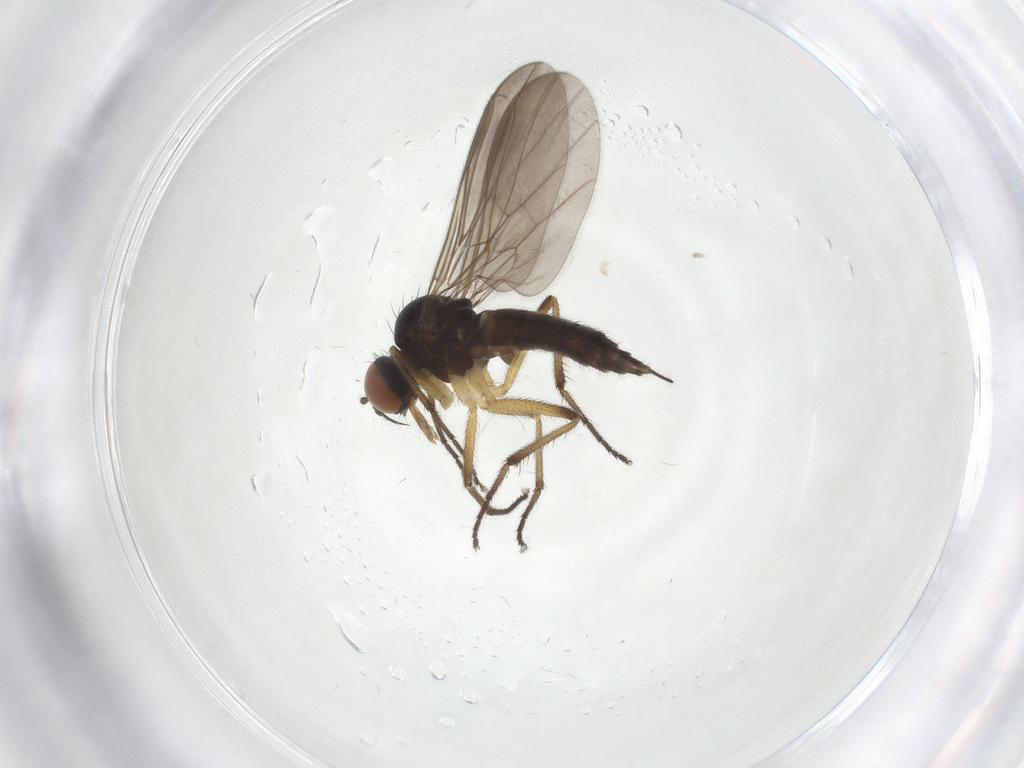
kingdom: Animalia
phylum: Arthropoda
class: Insecta
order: Diptera
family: Empididae
